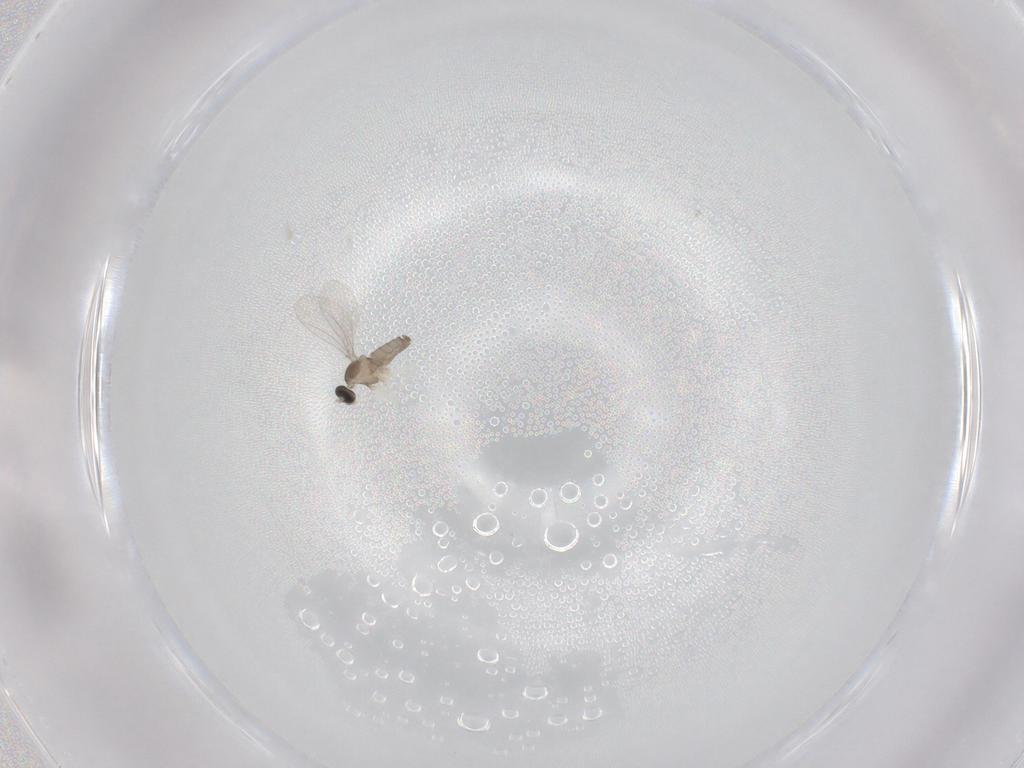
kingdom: Animalia
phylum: Arthropoda
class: Insecta
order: Diptera
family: Cecidomyiidae
